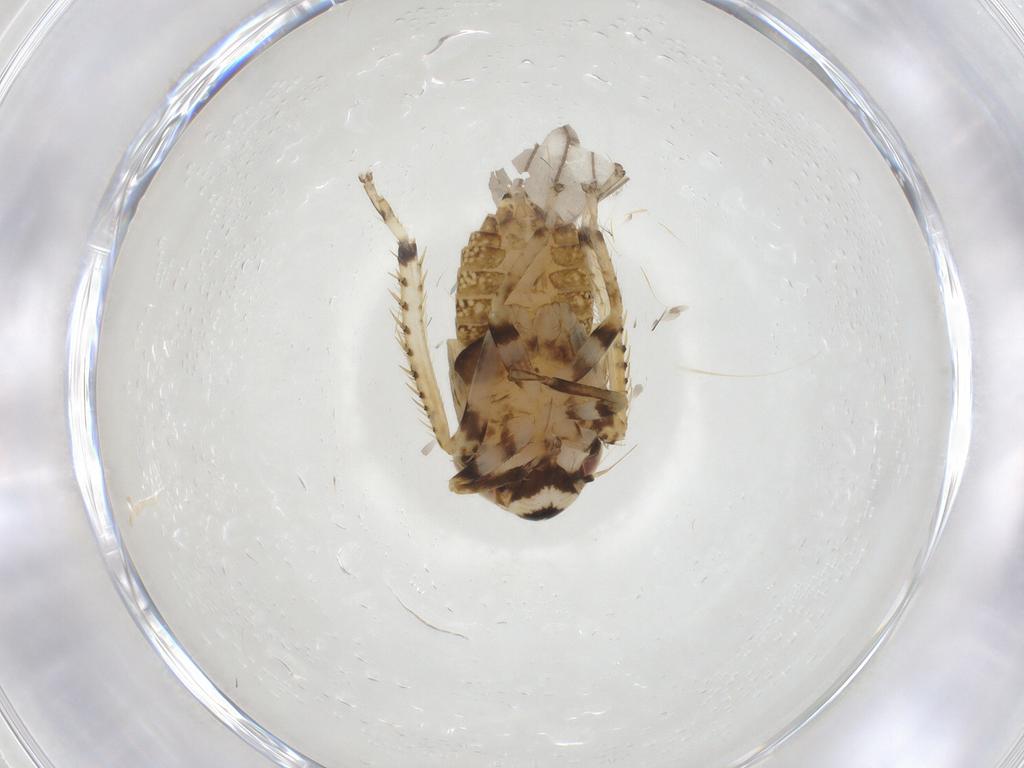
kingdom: Animalia
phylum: Arthropoda
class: Insecta
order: Hemiptera
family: Cicadellidae
